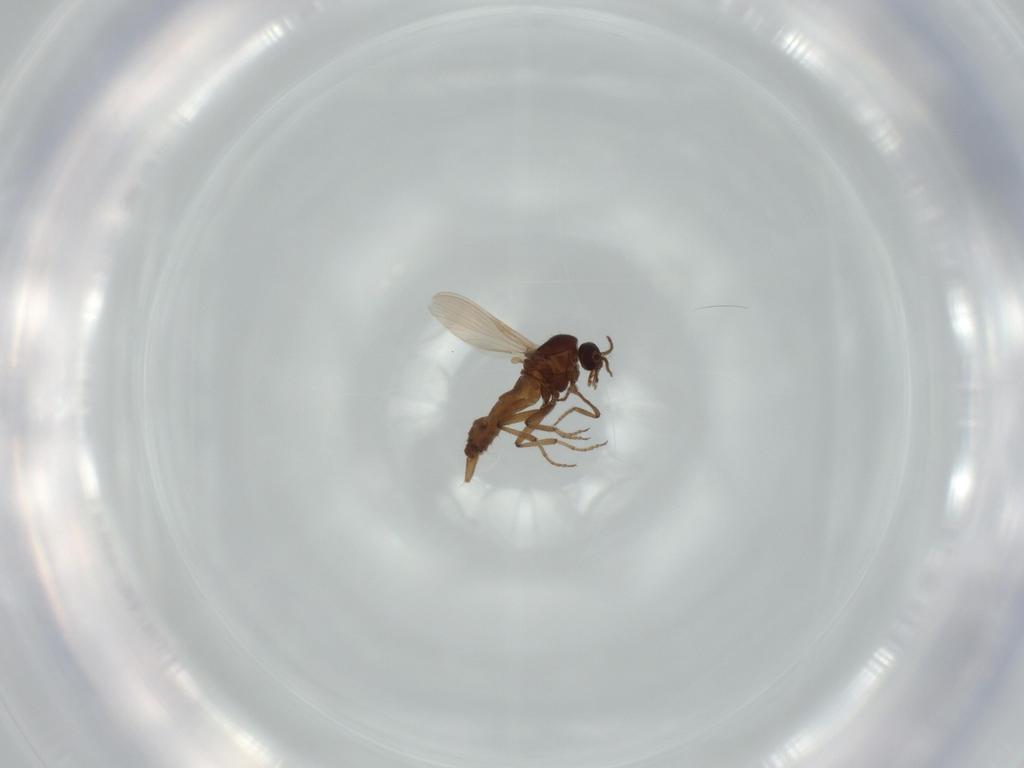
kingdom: Animalia
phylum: Arthropoda
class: Insecta
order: Diptera
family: Ceratopogonidae
